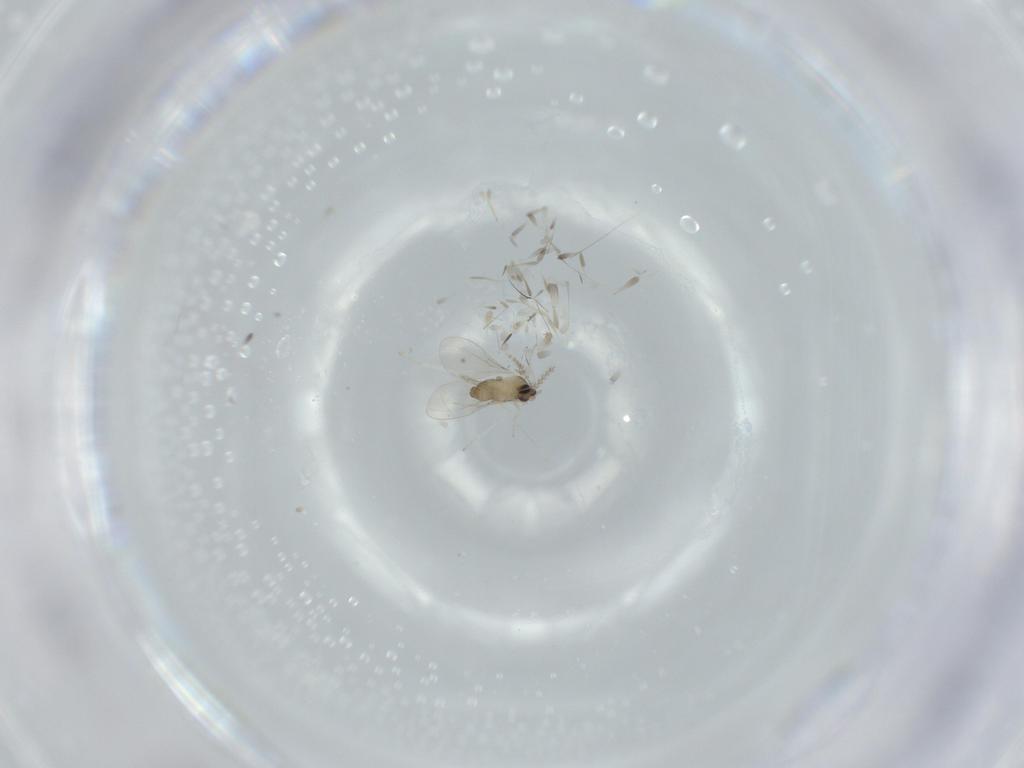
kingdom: Animalia
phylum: Arthropoda
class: Insecta
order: Diptera
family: Cecidomyiidae
